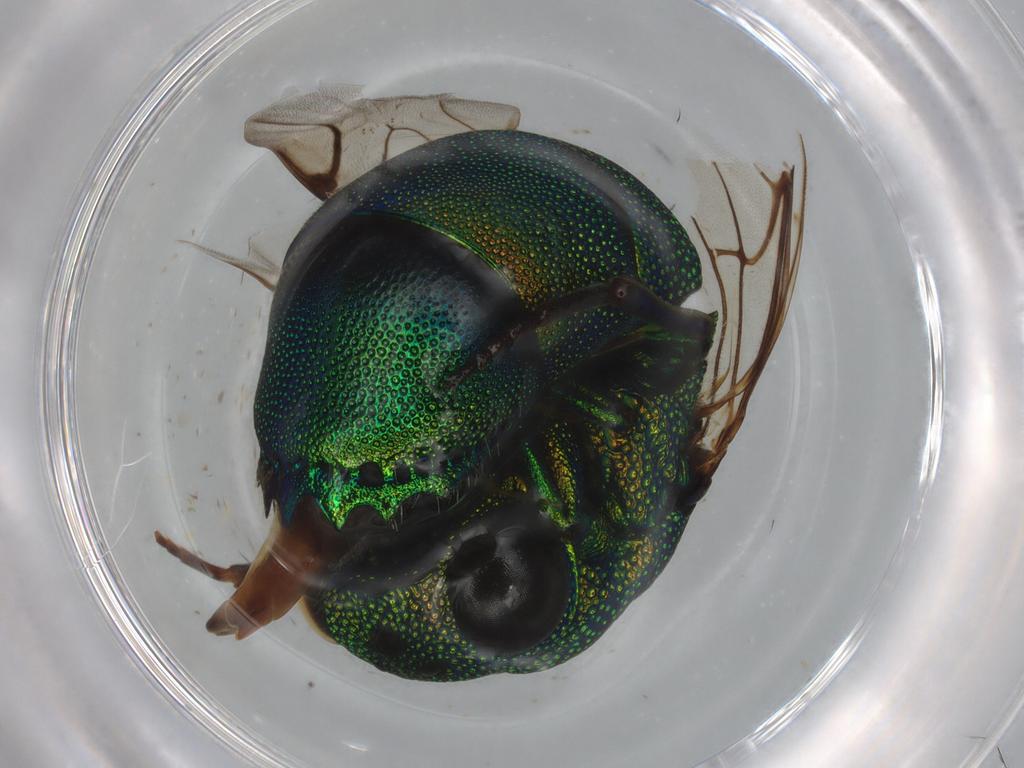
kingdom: Animalia
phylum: Arthropoda
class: Insecta
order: Hymenoptera
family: Chrysididae
